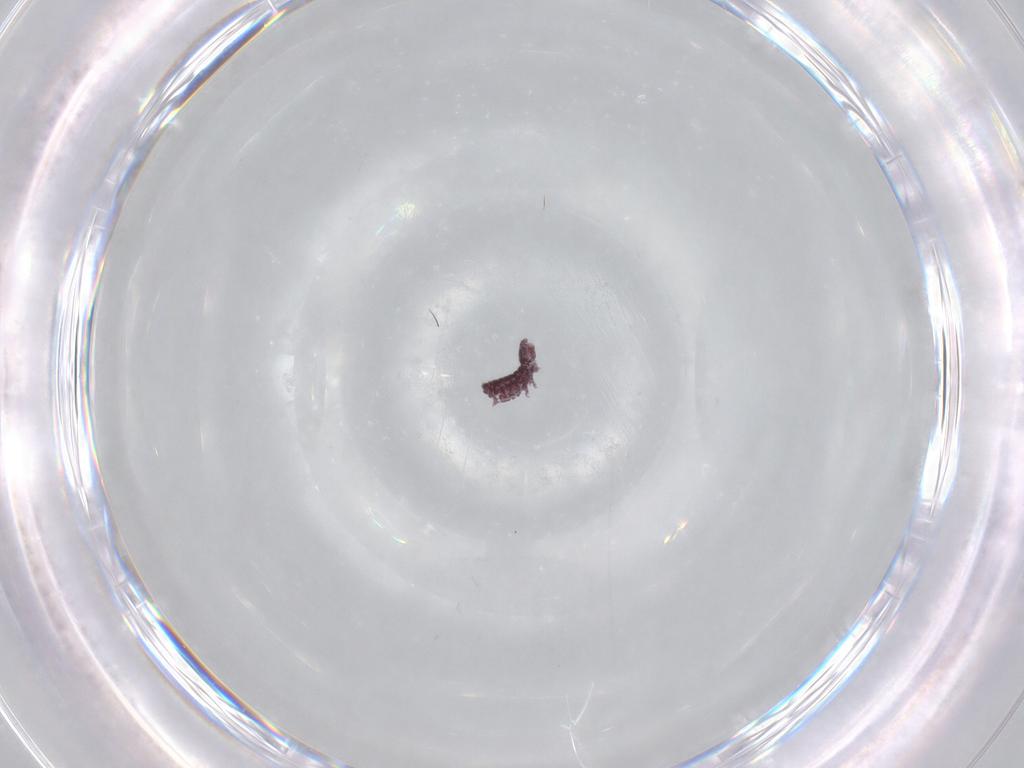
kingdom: Animalia
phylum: Arthropoda
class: Collembola
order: Poduromorpha
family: Hypogastruridae
